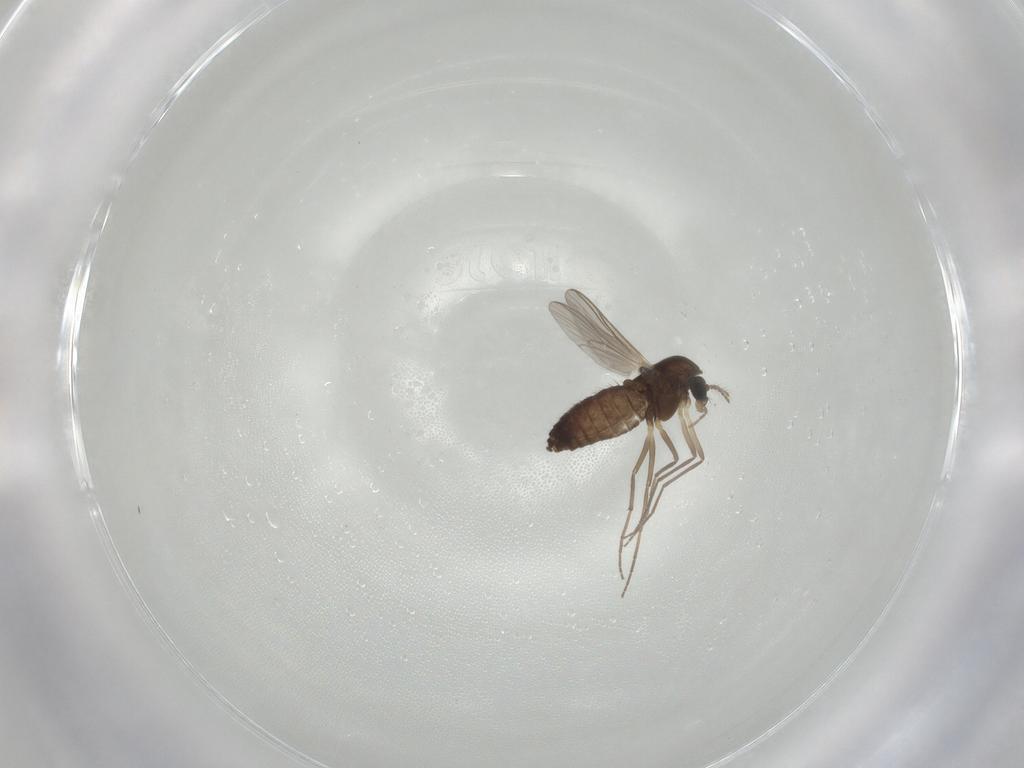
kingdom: Animalia
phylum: Arthropoda
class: Insecta
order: Diptera
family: Chironomidae
